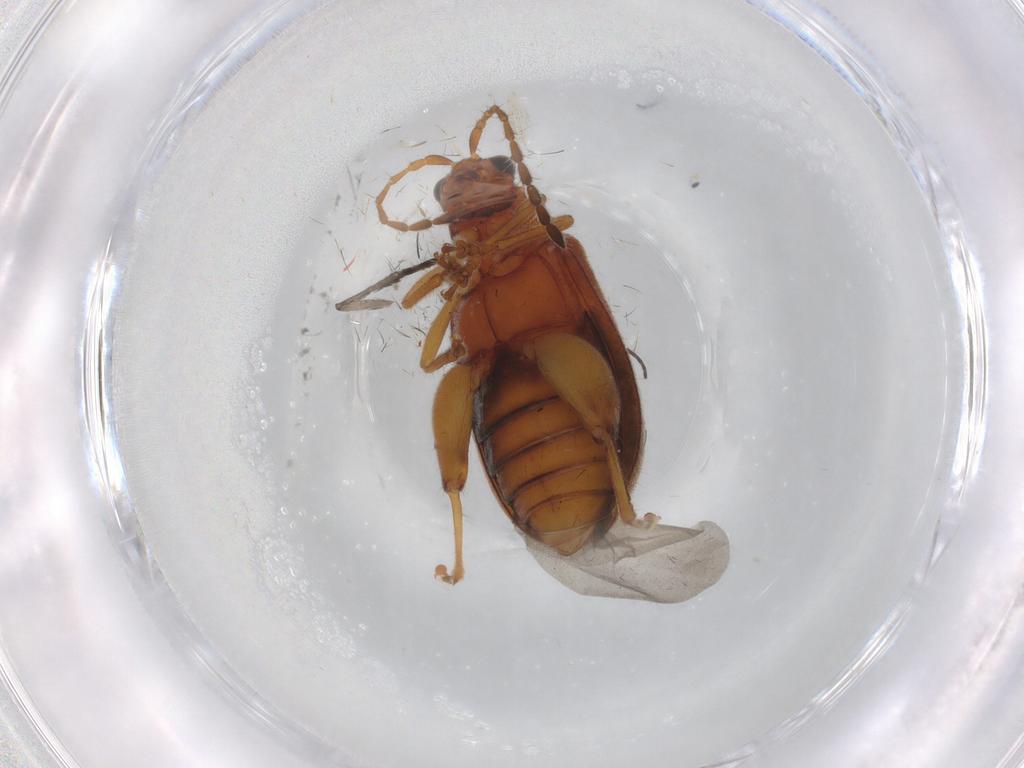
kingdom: Animalia
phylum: Arthropoda
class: Insecta
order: Coleoptera
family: Chrysomelidae
